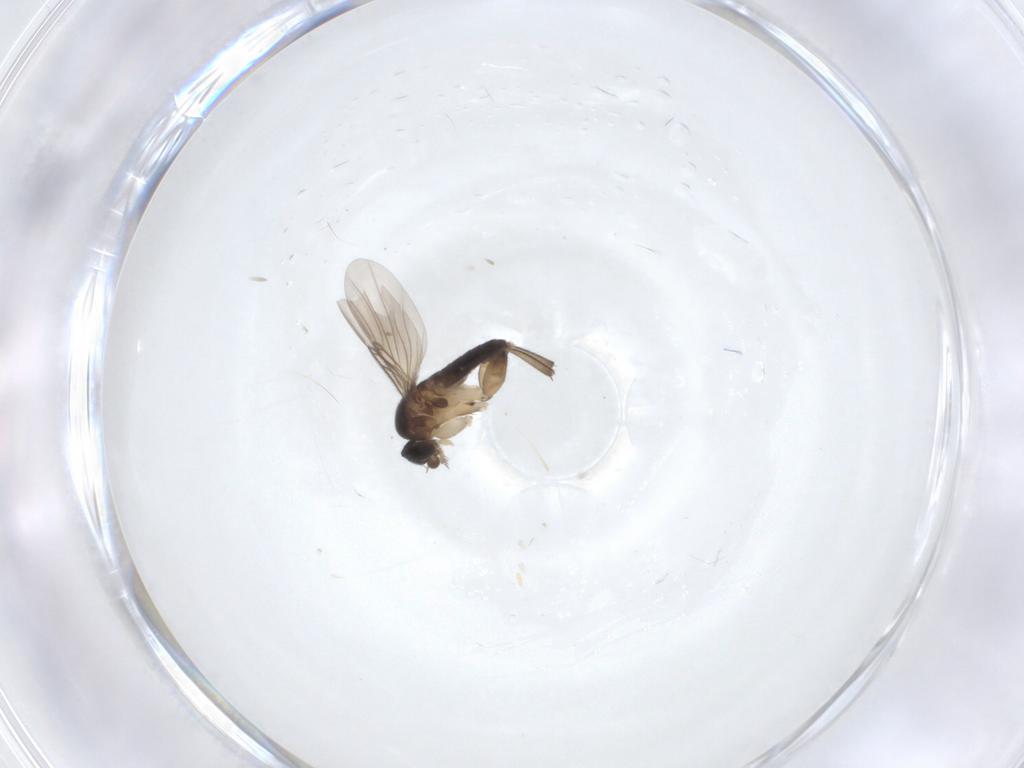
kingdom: Animalia
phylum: Arthropoda
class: Insecta
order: Diptera
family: Phoridae
